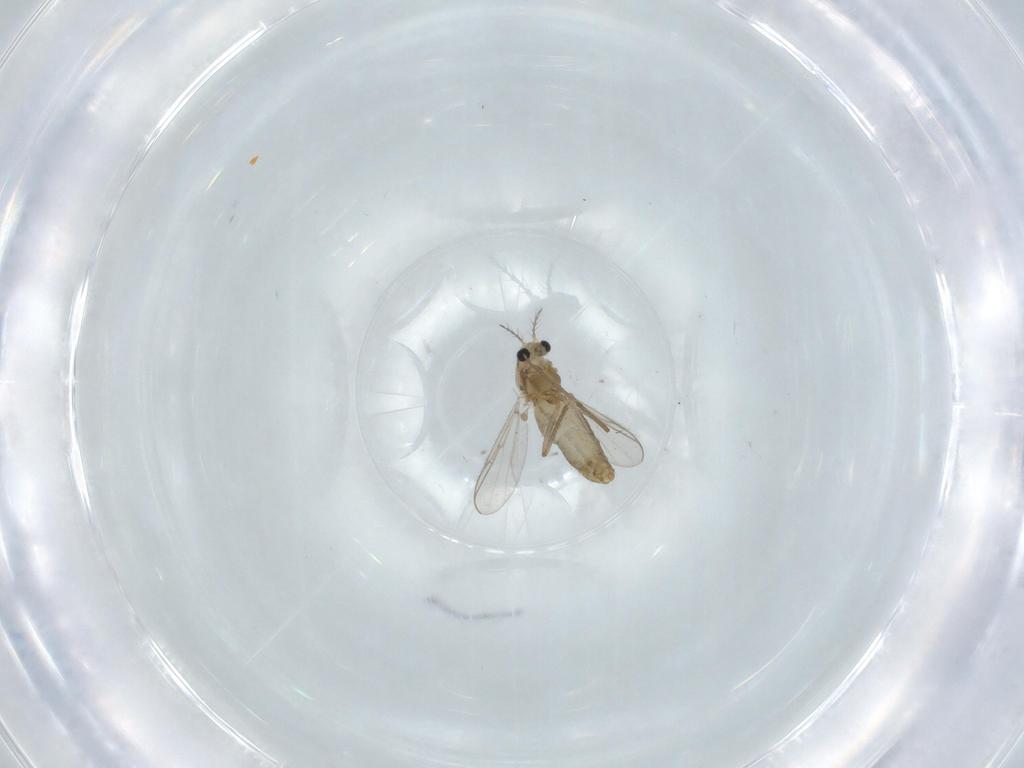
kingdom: Animalia
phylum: Arthropoda
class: Insecta
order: Diptera
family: Chironomidae
